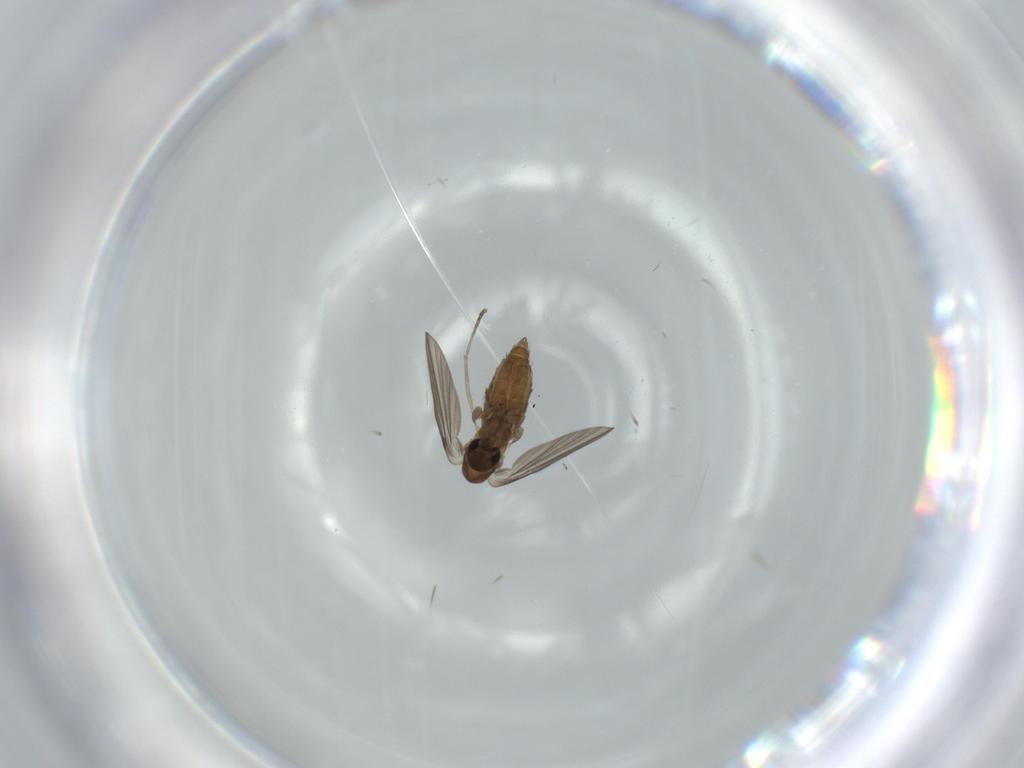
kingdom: Animalia
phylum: Arthropoda
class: Insecta
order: Diptera
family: Psychodidae
